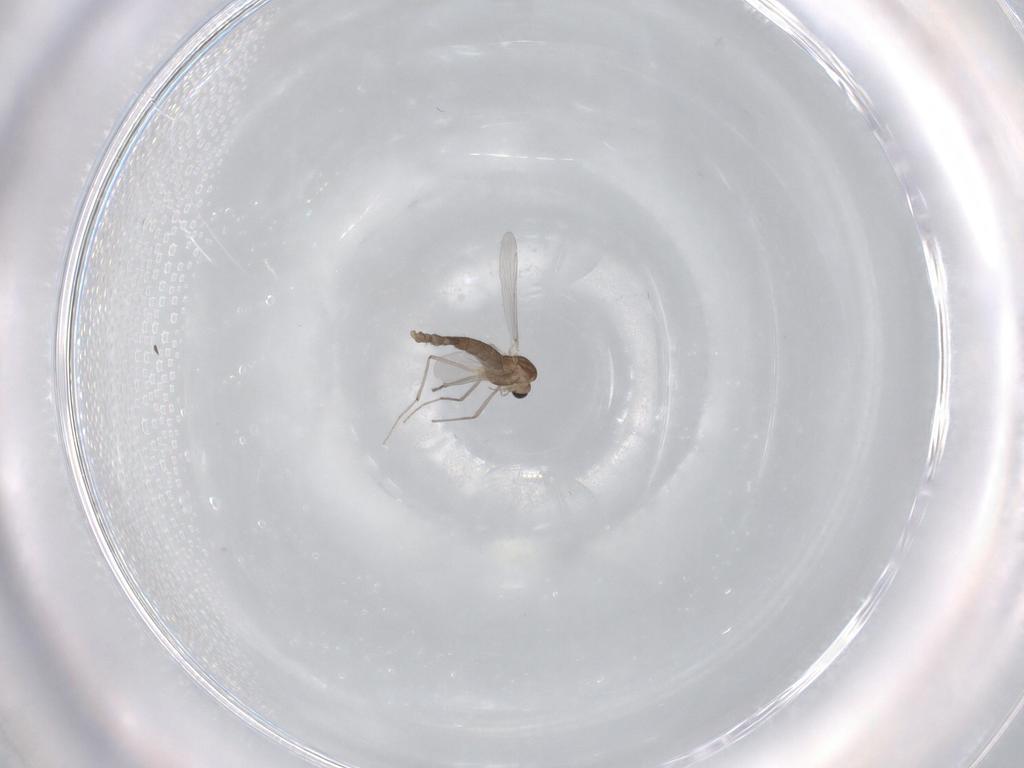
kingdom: Animalia
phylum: Arthropoda
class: Insecta
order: Diptera
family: Chironomidae
